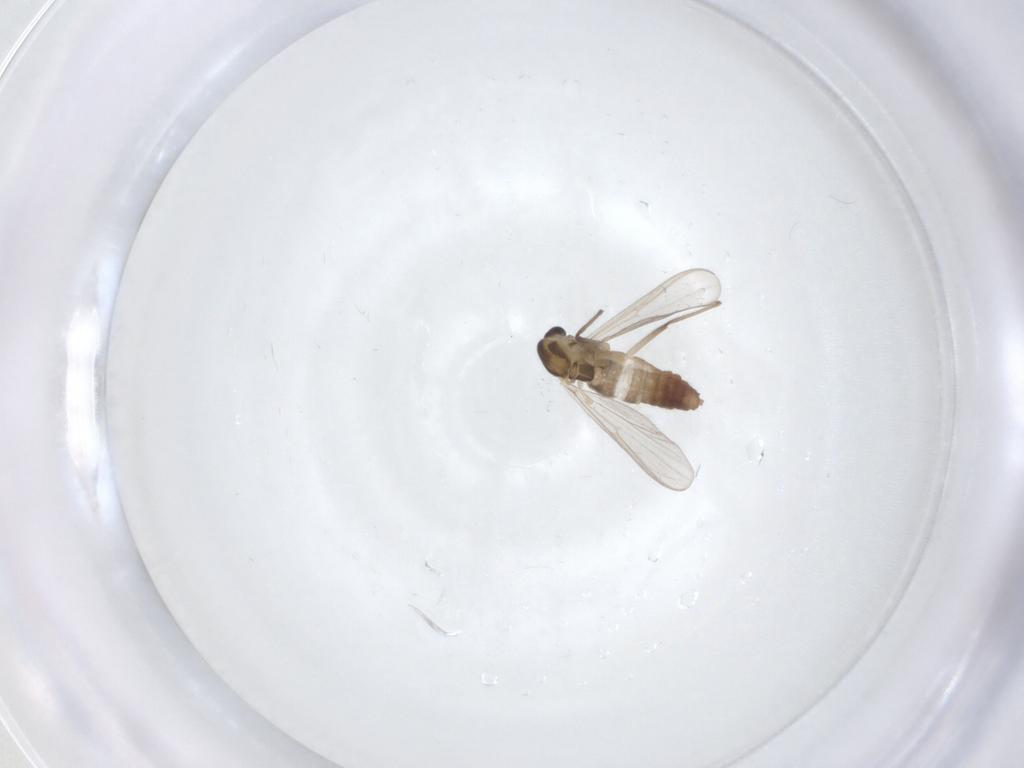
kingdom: Animalia
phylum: Arthropoda
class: Insecta
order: Diptera
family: Chironomidae
